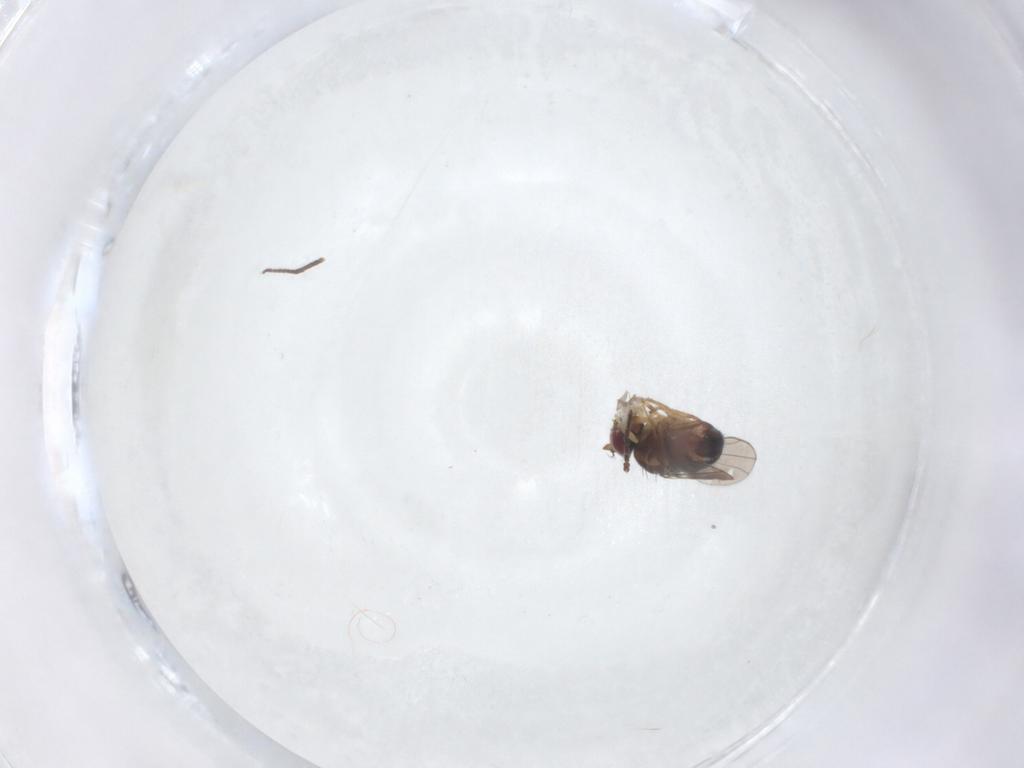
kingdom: Animalia
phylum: Arthropoda
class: Insecta
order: Diptera
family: Ephydridae
